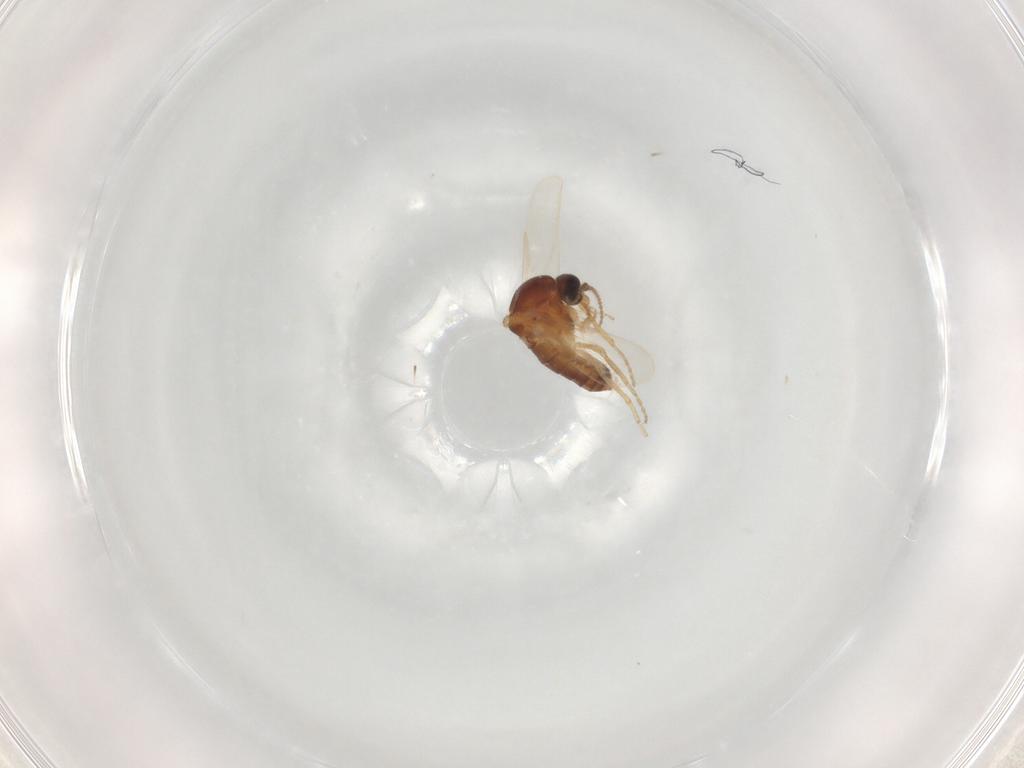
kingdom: Animalia
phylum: Arthropoda
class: Insecta
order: Diptera
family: Ceratopogonidae
